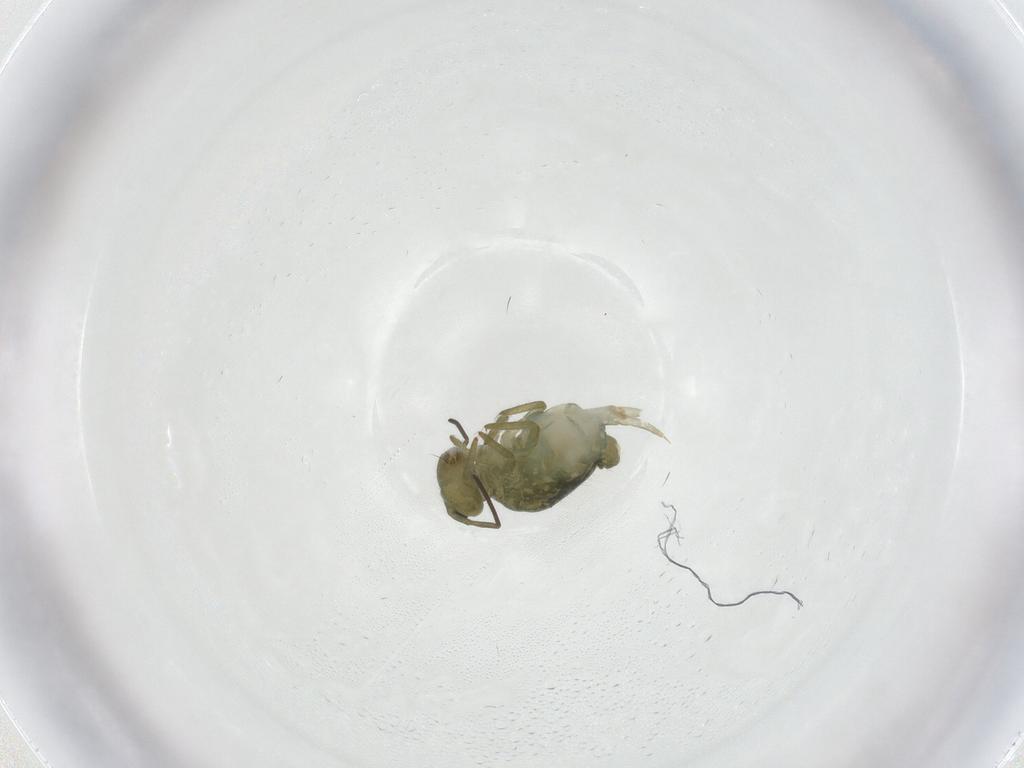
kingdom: Animalia
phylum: Arthropoda
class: Collembola
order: Symphypleona
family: Sminthuridae
